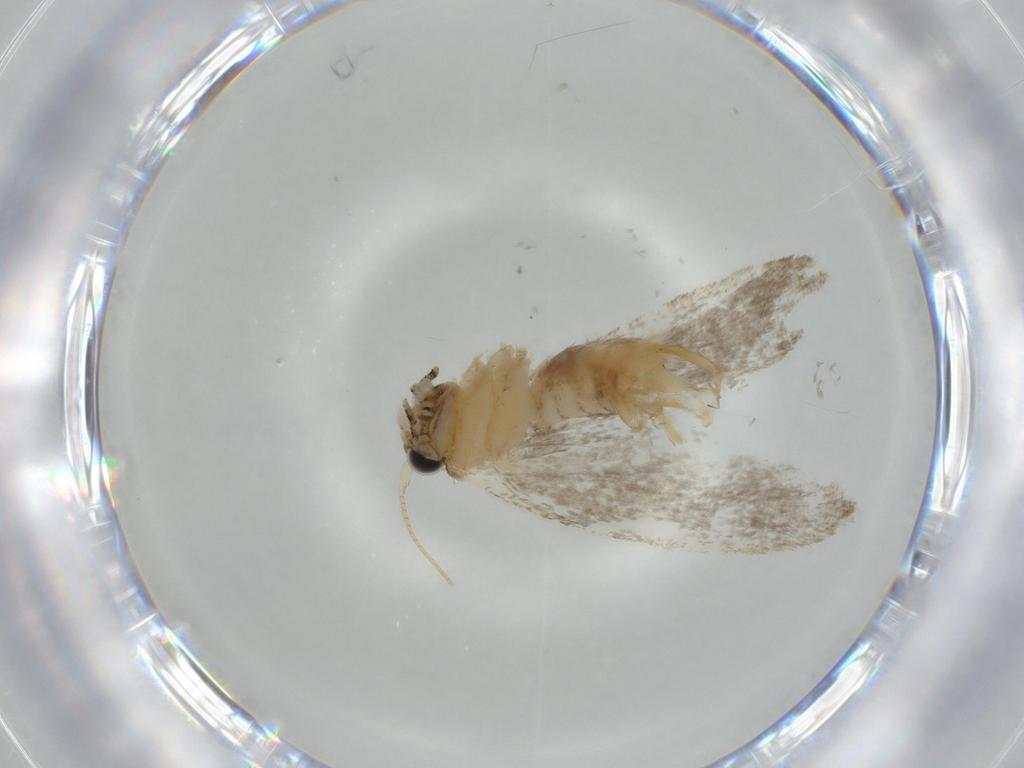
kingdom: Animalia
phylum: Arthropoda
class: Insecta
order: Lepidoptera
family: Tineidae
